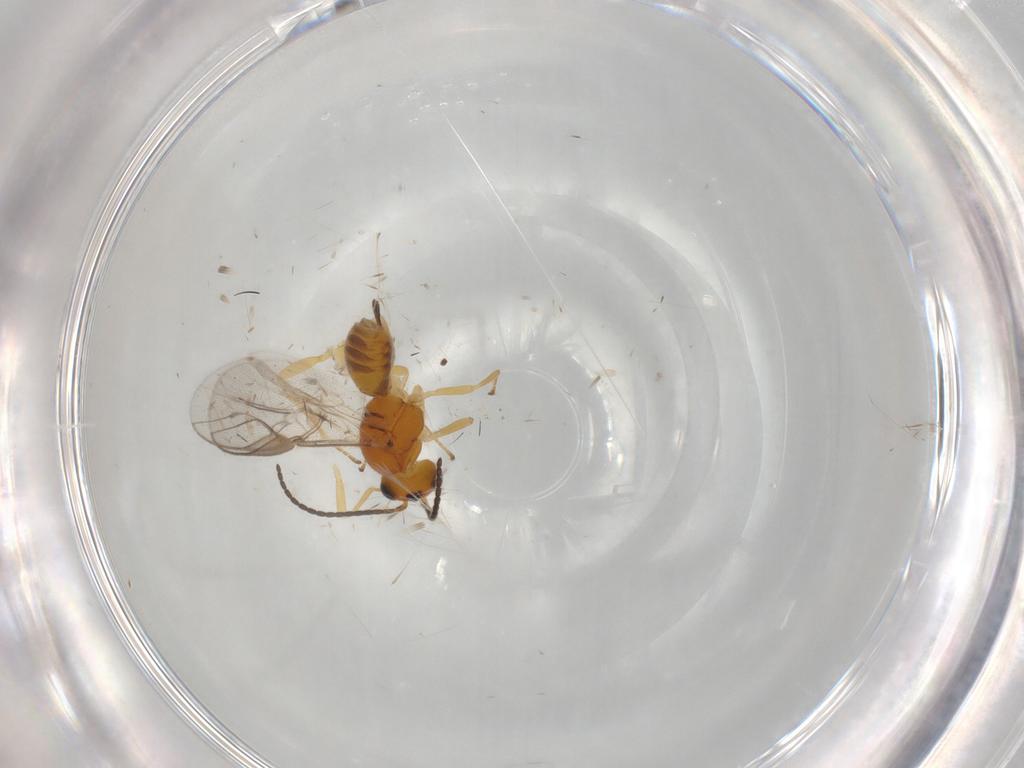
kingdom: Animalia
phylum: Arthropoda
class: Insecta
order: Hymenoptera
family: Braconidae
